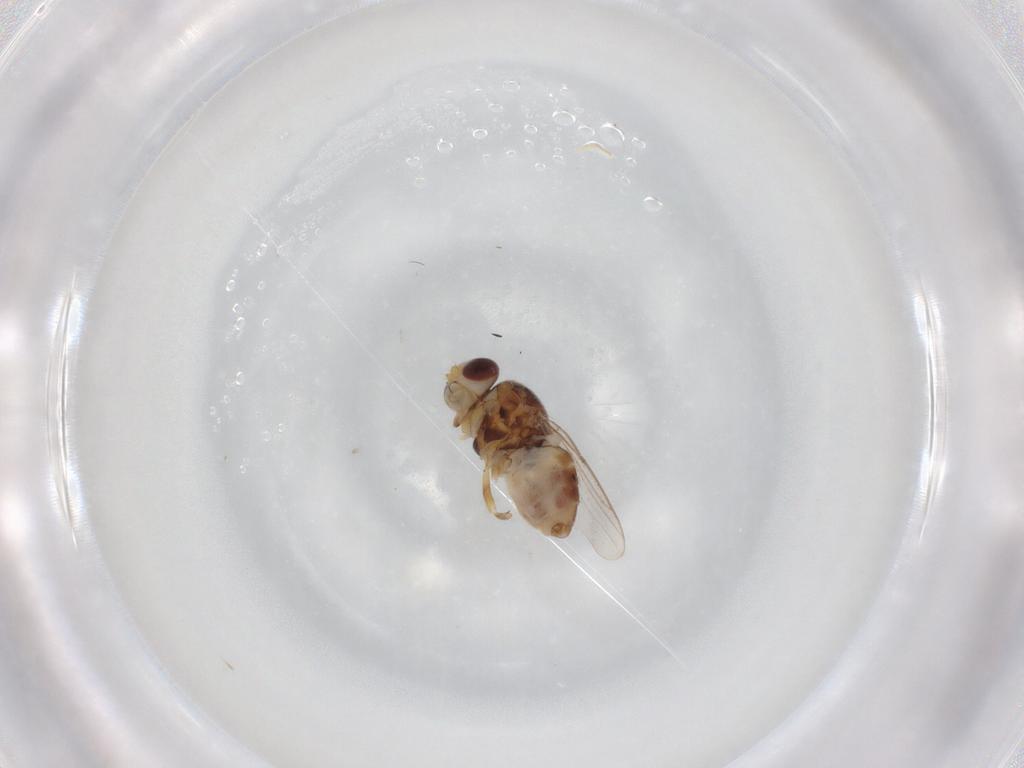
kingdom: Animalia
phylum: Arthropoda
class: Insecta
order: Diptera
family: Chloropidae
